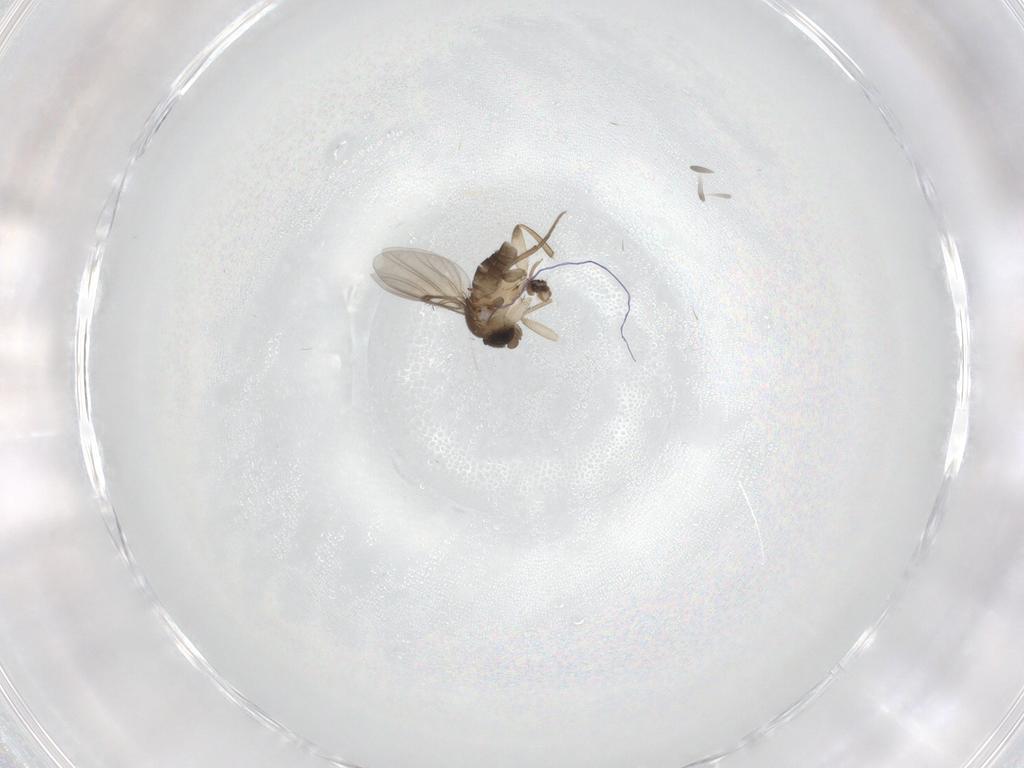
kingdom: Animalia
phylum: Arthropoda
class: Insecta
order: Diptera
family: Phoridae
